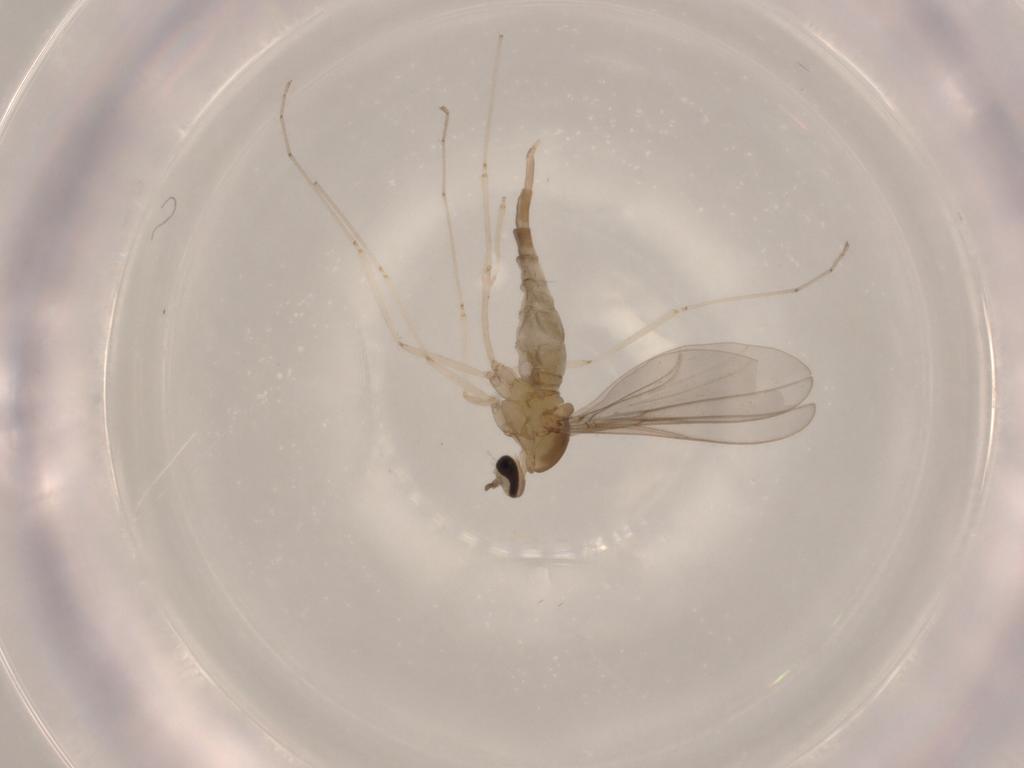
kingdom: Animalia
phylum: Arthropoda
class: Insecta
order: Diptera
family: Cecidomyiidae
